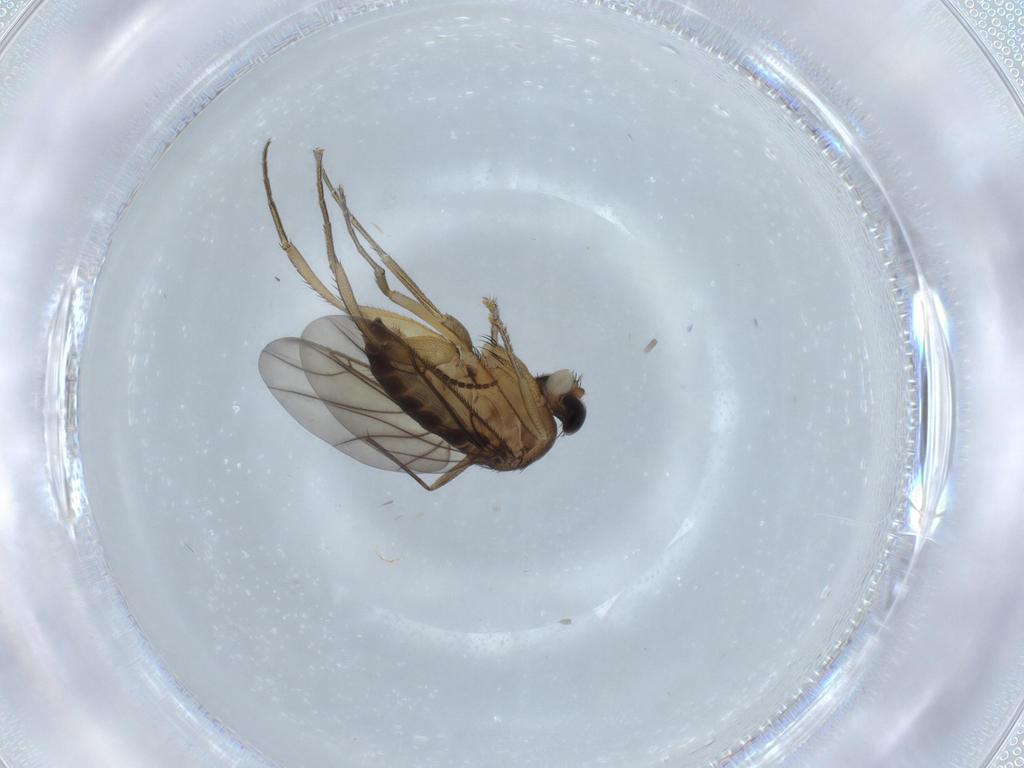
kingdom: Animalia
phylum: Arthropoda
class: Insecta
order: Diptera
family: Phoridae
